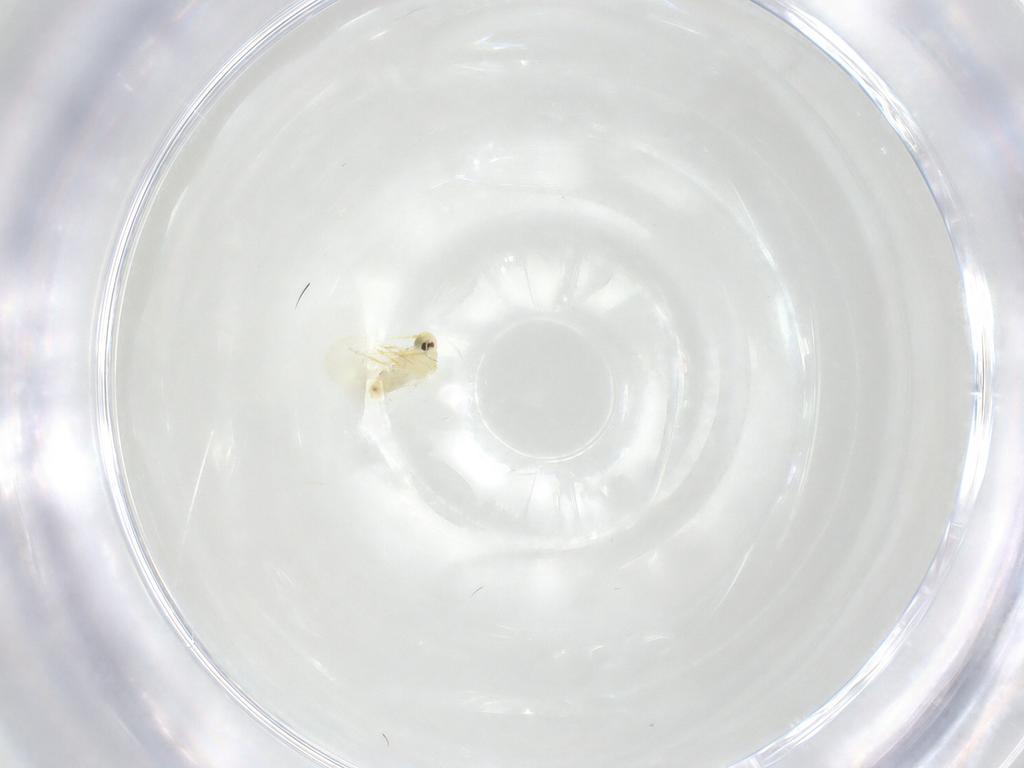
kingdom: Animalia
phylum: Arthropoda
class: Insecta
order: Hemiptera
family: Aleyrodidae
